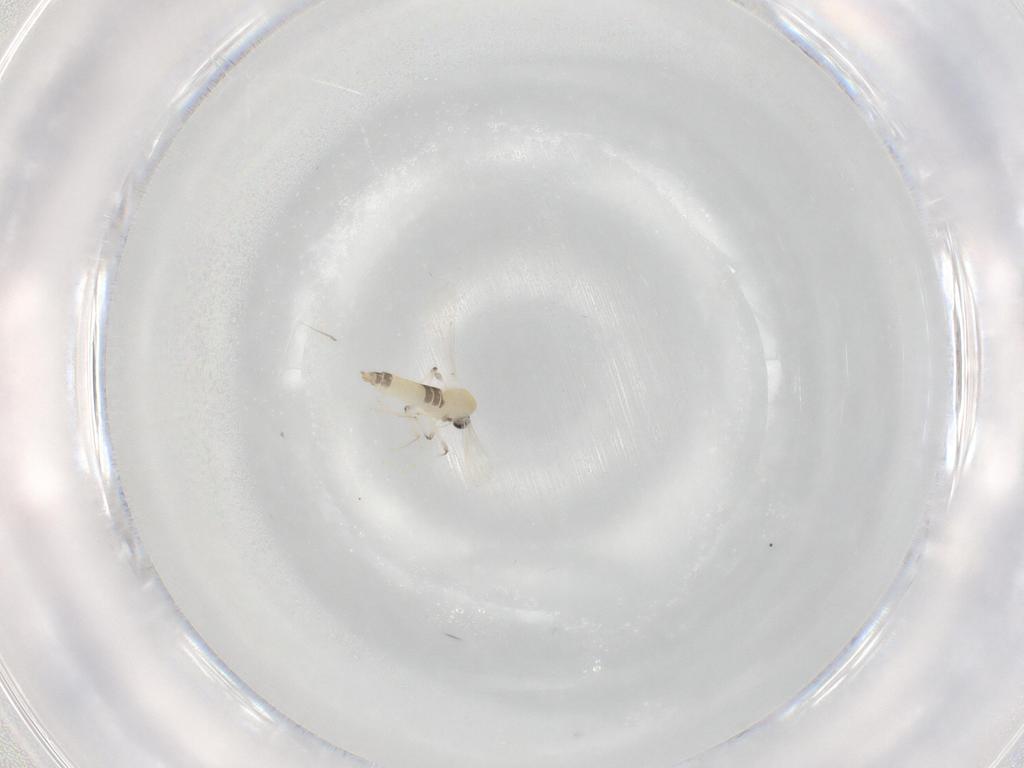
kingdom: Animalia
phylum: Arthropoda
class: Insecta
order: Diptera
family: Chironomidae
